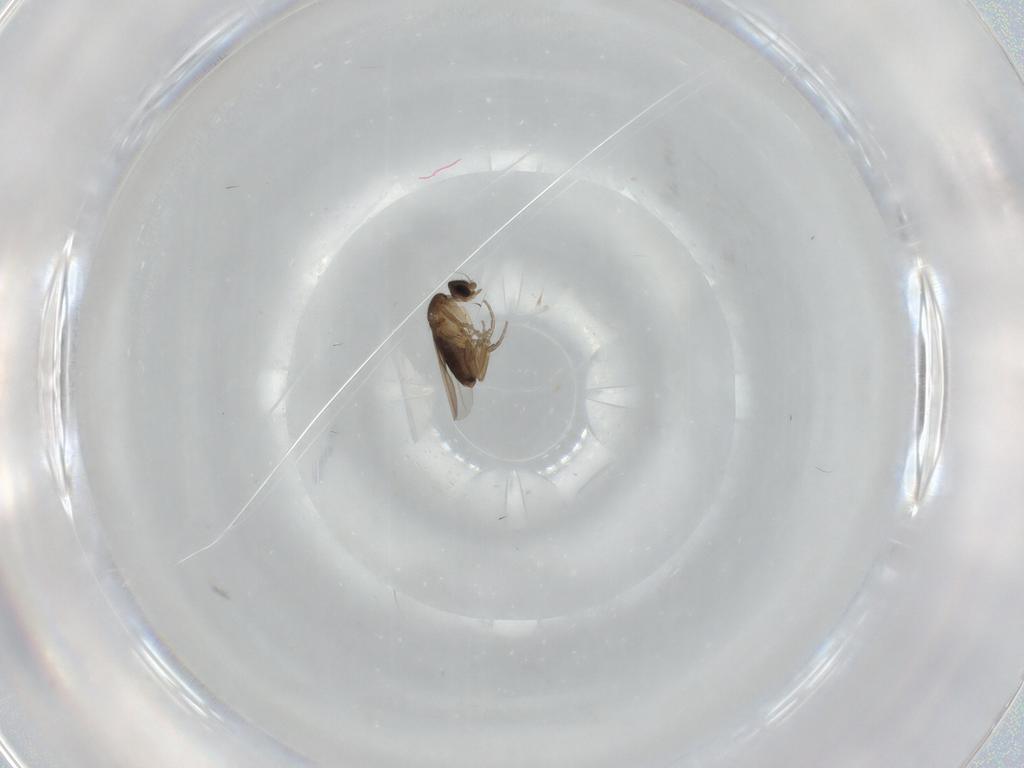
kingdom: Animalia
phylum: Arthropoda
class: Insecta
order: Diptera
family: Phoridae
